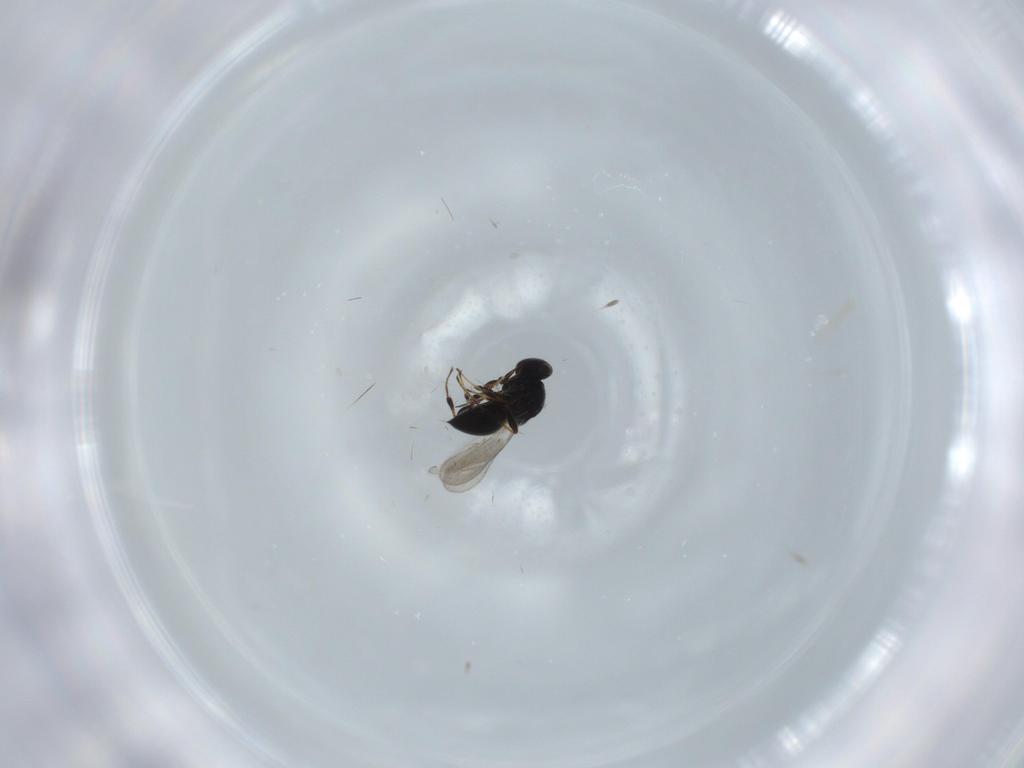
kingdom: Animalia
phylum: Arthropoda
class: Insecta
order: Hymenoptera
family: Platygastridae
